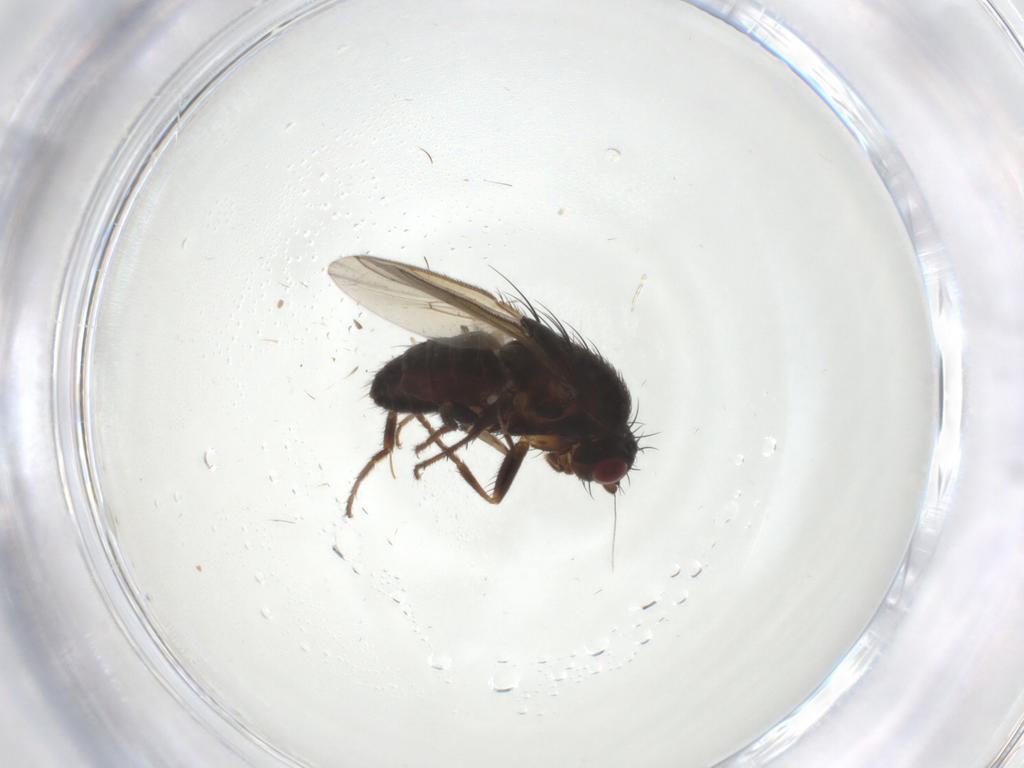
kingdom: Animalia
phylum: Arthropoda
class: Insecta
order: Diptera
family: Sphaeroceridae
